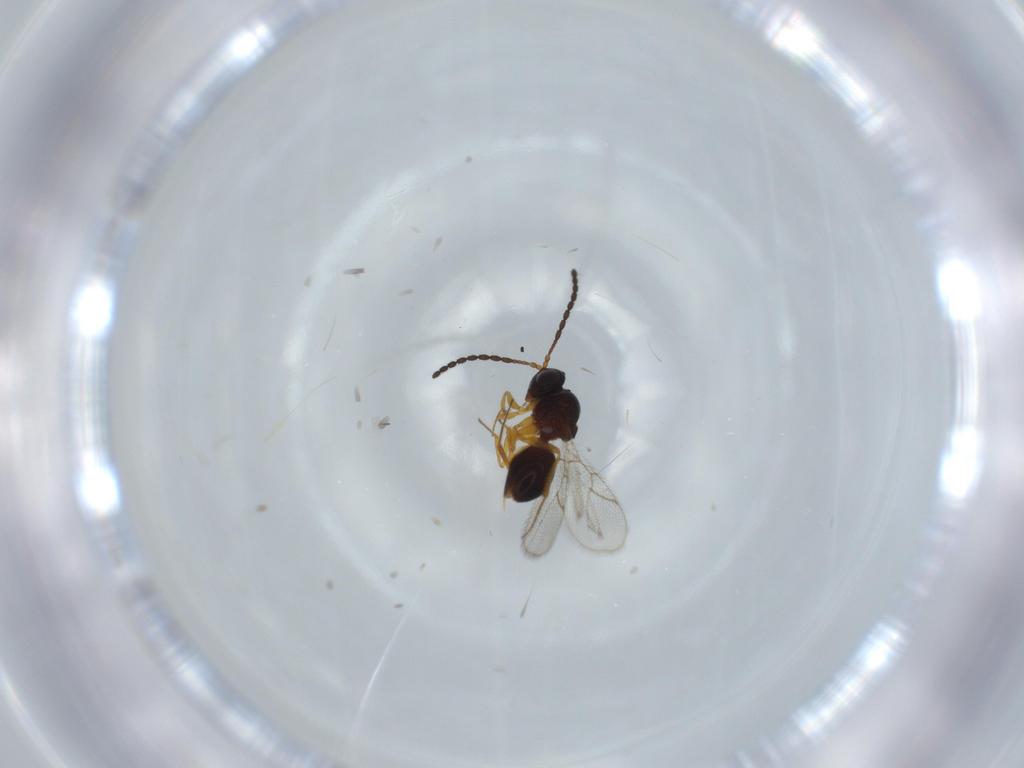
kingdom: Animalia
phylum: Arthropoda
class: Insecta
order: Hymenoptera
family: Figitidae
